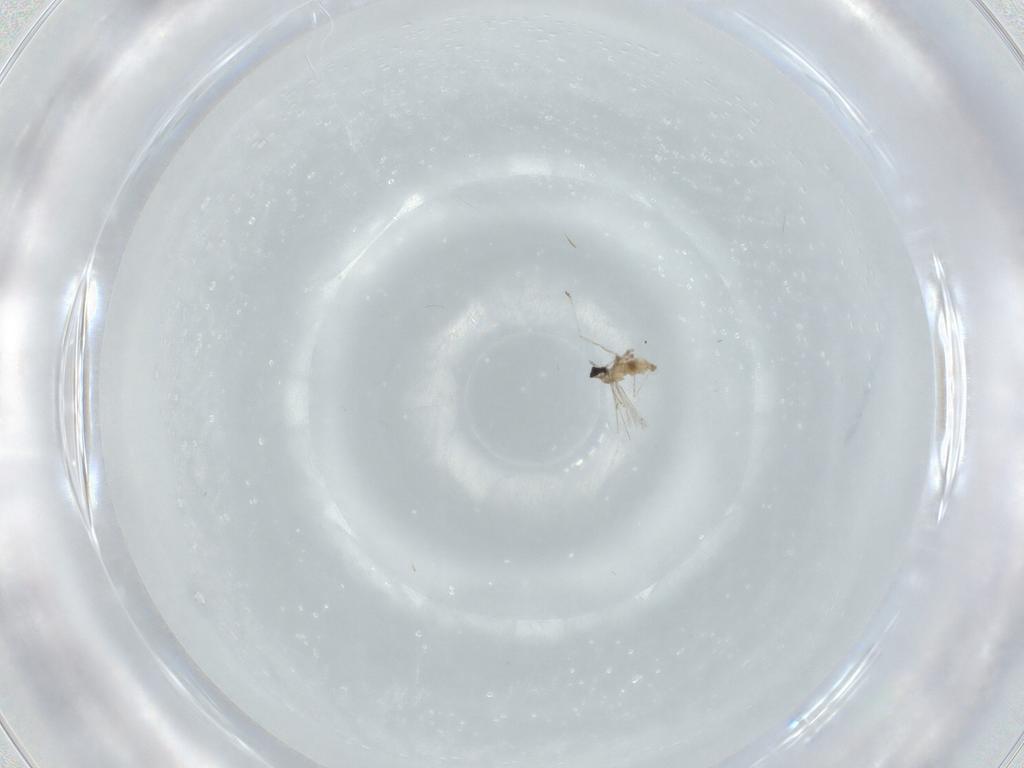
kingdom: Animalia
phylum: Arthropoda
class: Insecta
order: Diptera
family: Cecidomyiidae
